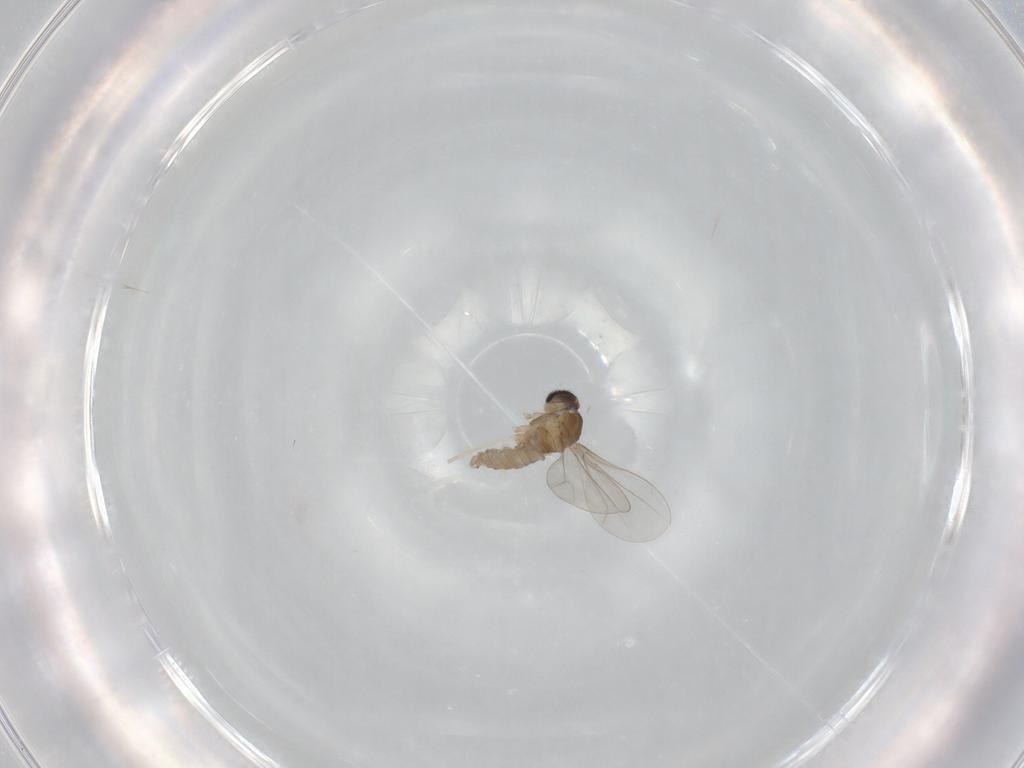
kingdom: Animalia
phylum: Arthropoda
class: Insecta
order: Diptera
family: Cecidomyiidae
